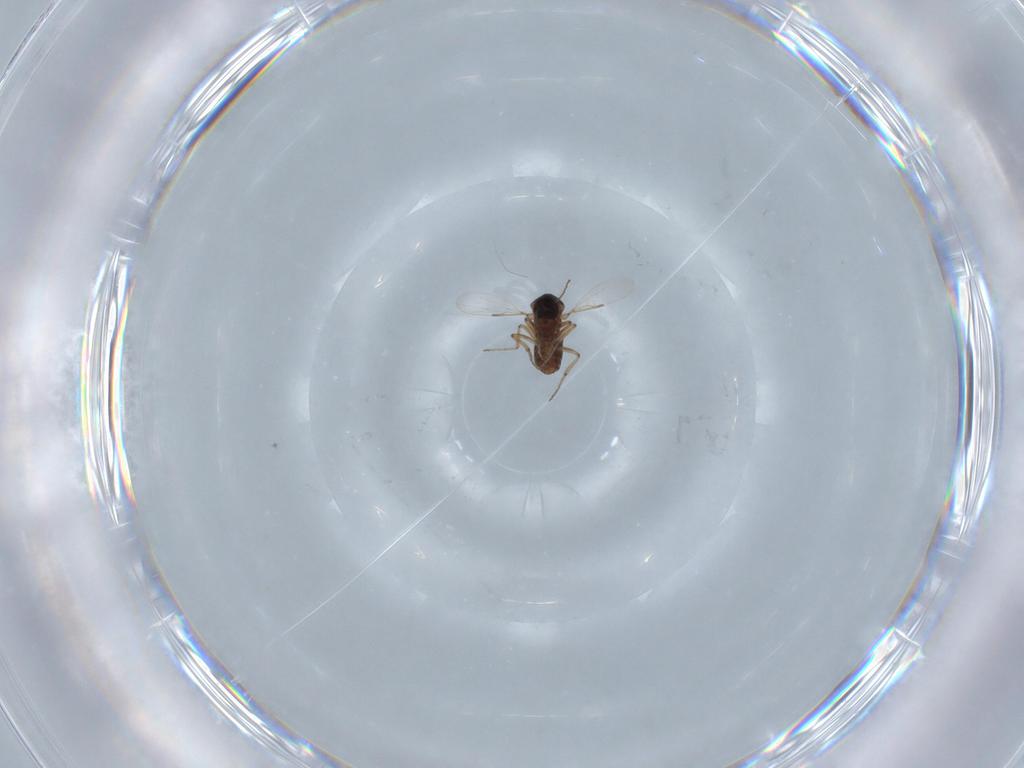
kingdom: Animalia
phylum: Arthropoda
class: Insecta
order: Diptera
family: Ceratopogonidae
